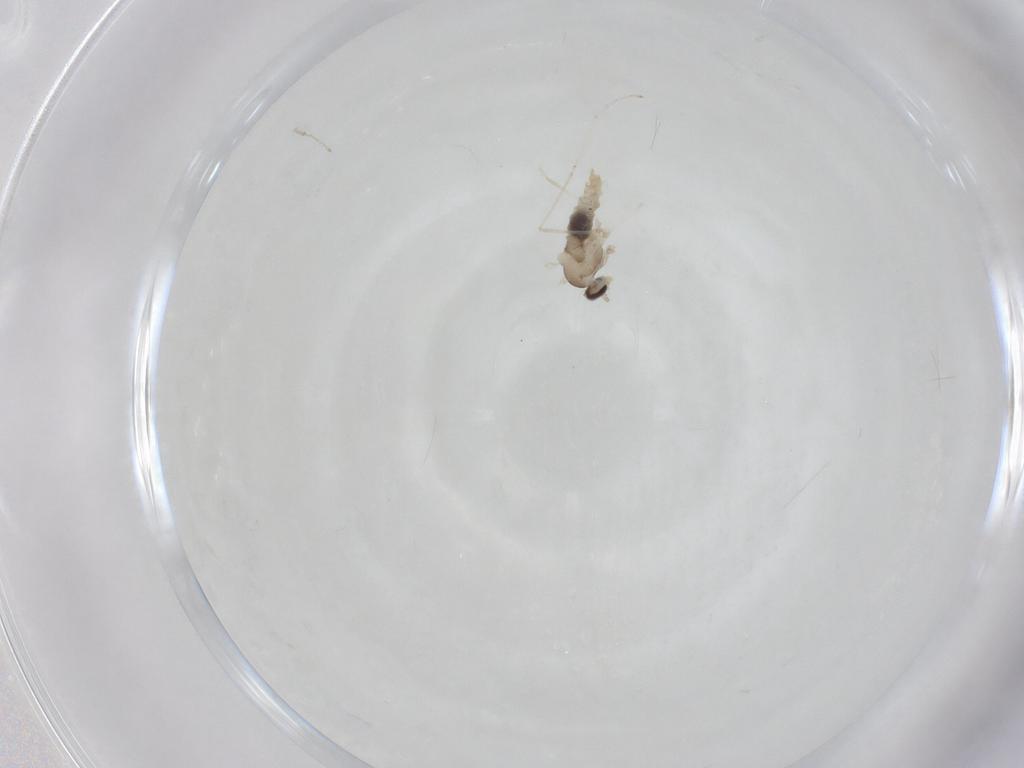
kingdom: Animalia
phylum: Arthropoda
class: Insecta
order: Diptera
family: Cecidomyiidae
